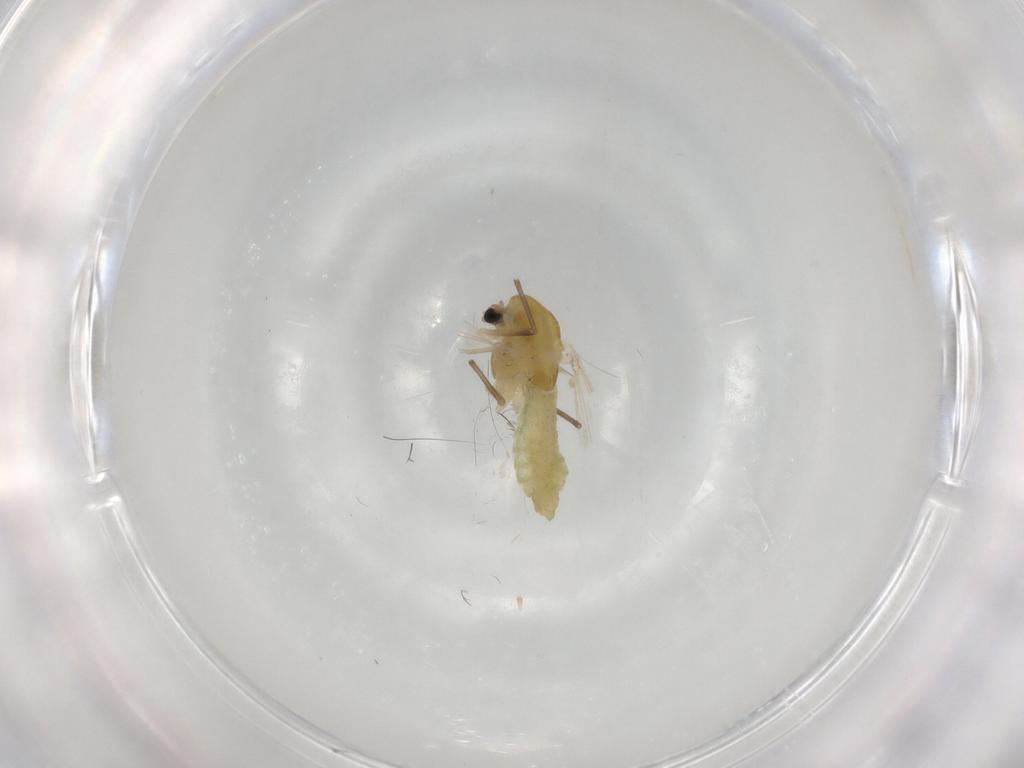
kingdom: Animalia
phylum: Arthropoda
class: Insecta
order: Diptera
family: Chironomidae
